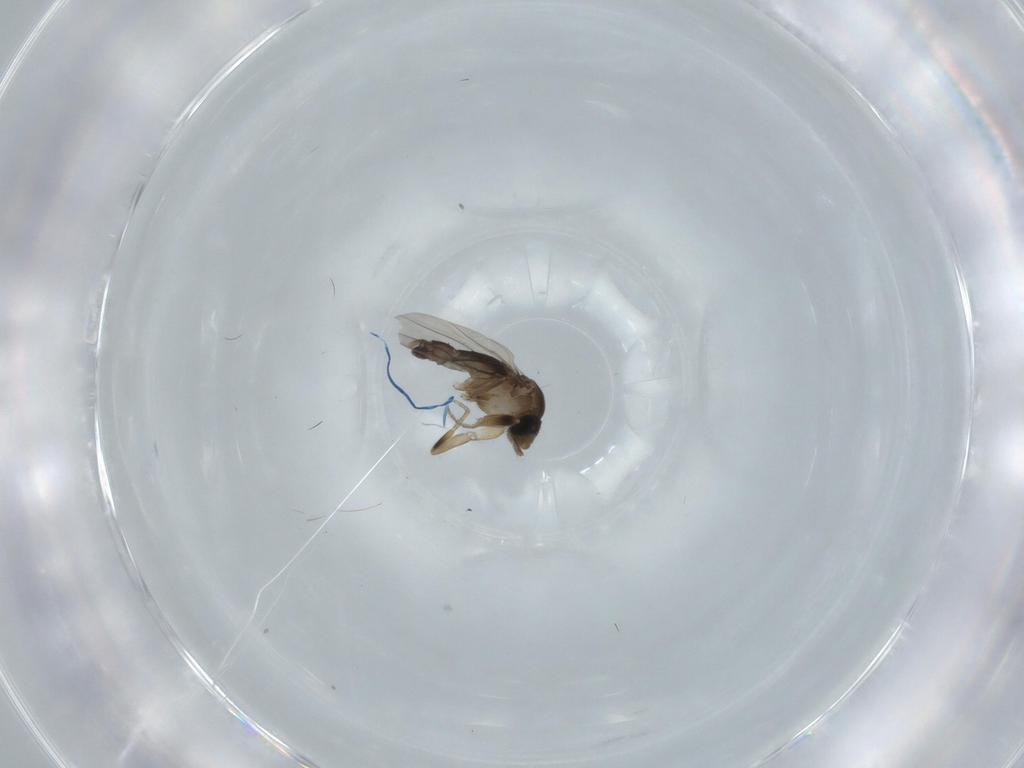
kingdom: Animalia
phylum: Arthropoda
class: Insecta
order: Diptera
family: Phoridae
